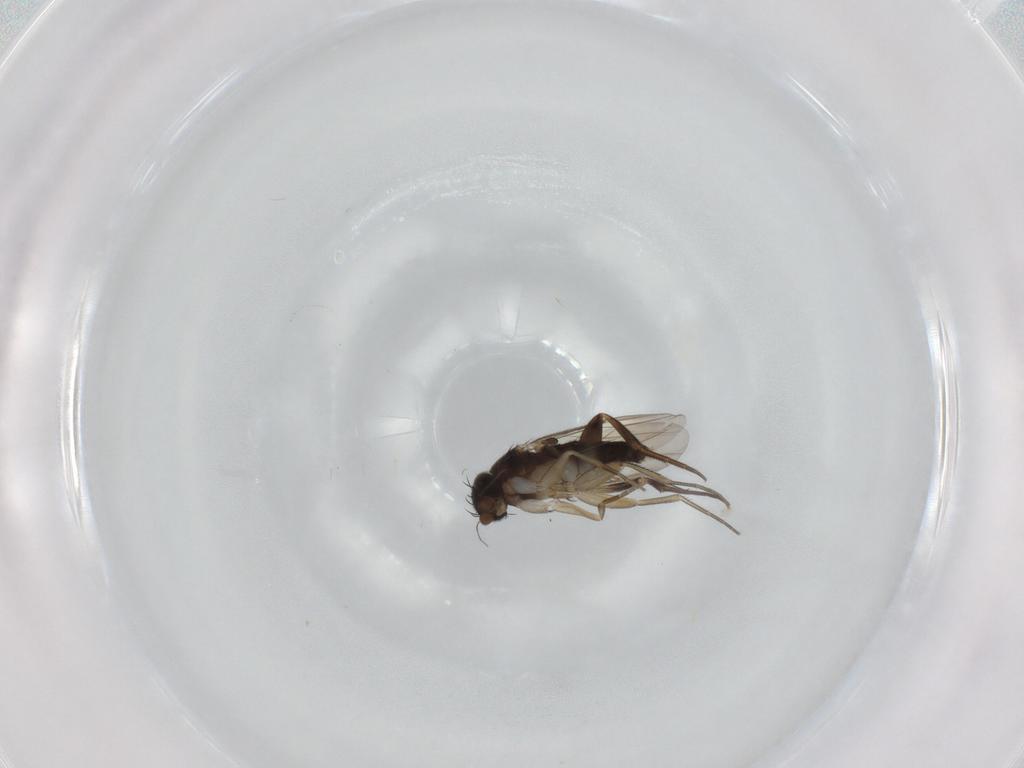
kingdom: Animalia
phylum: Arthropoda
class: Insecta
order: Diptera
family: Phoridae
